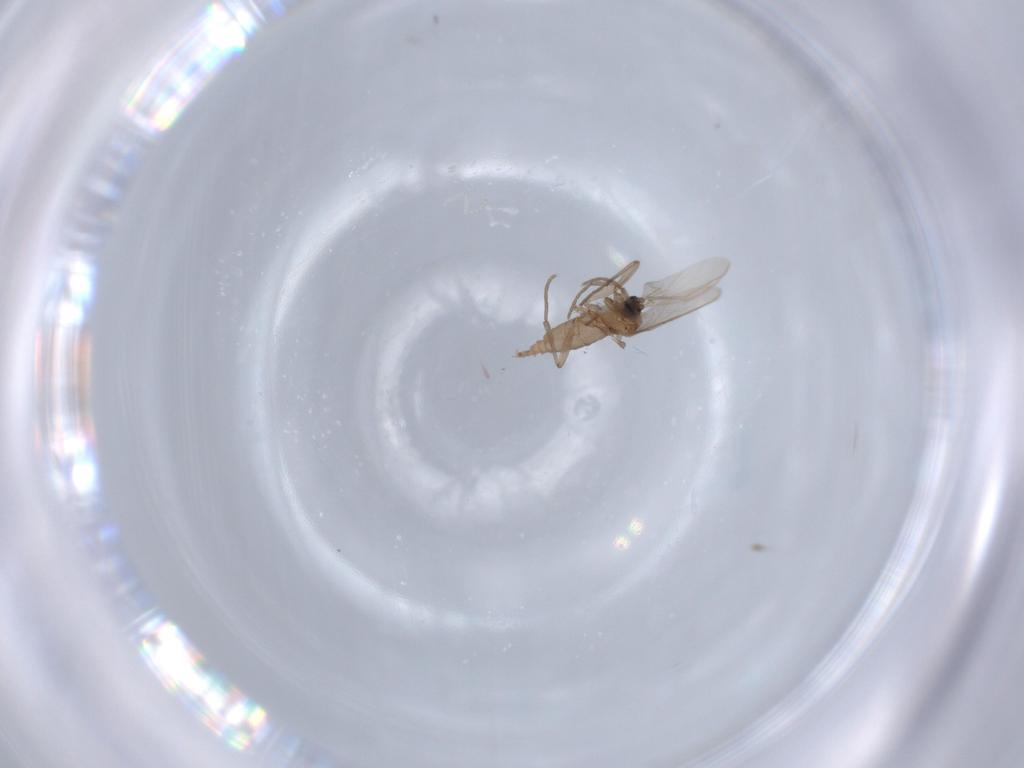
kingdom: Animalia
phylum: Arthropoda
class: Insecta
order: Diptera
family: Sciaridae
